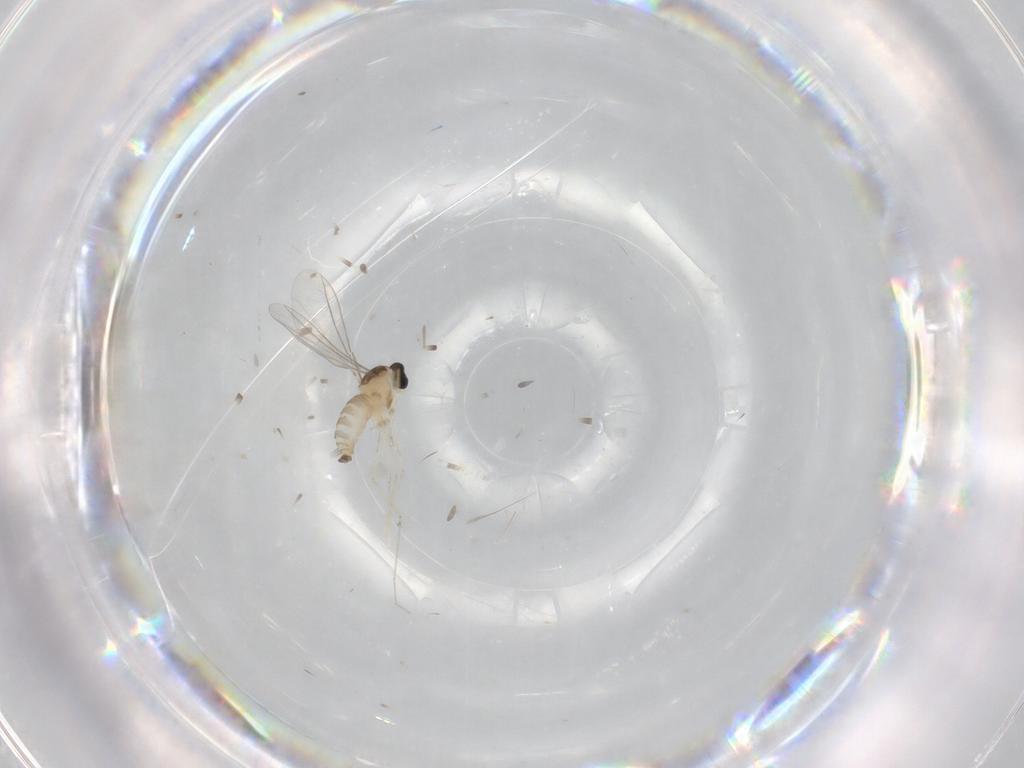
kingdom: Animalia
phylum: Arthropoda
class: Insecta
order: Diptera
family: Cecidomyiidae
